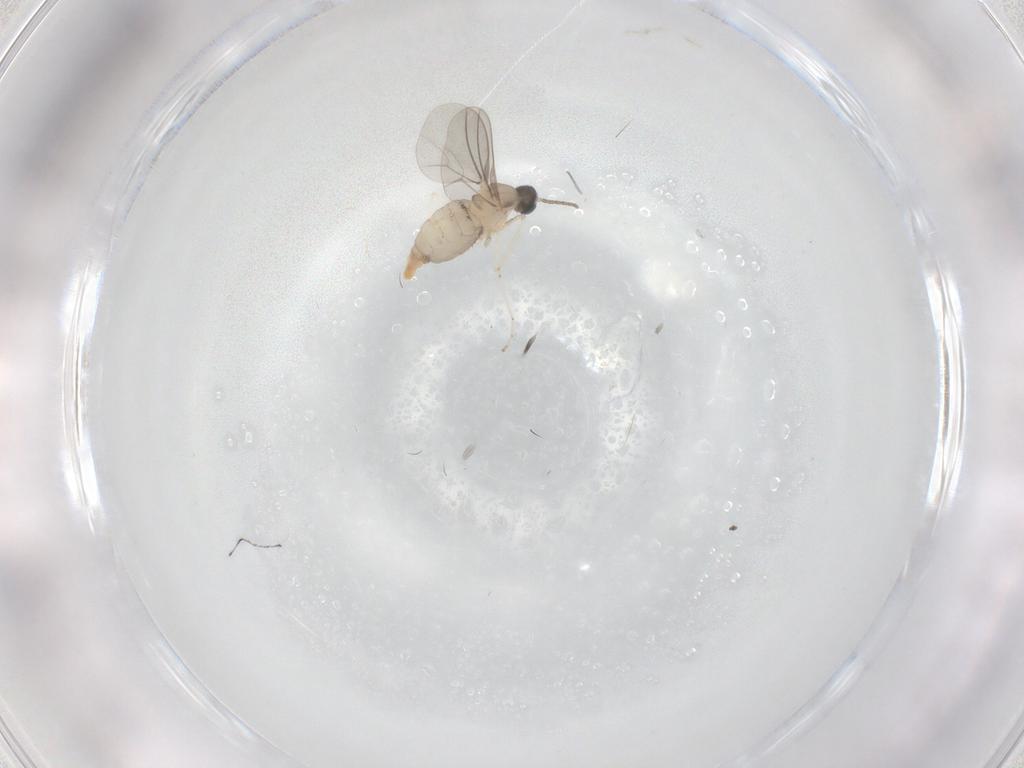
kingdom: Animalia
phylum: Arthropoda
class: Insecta
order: Diptera
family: Cecidomyiidae
